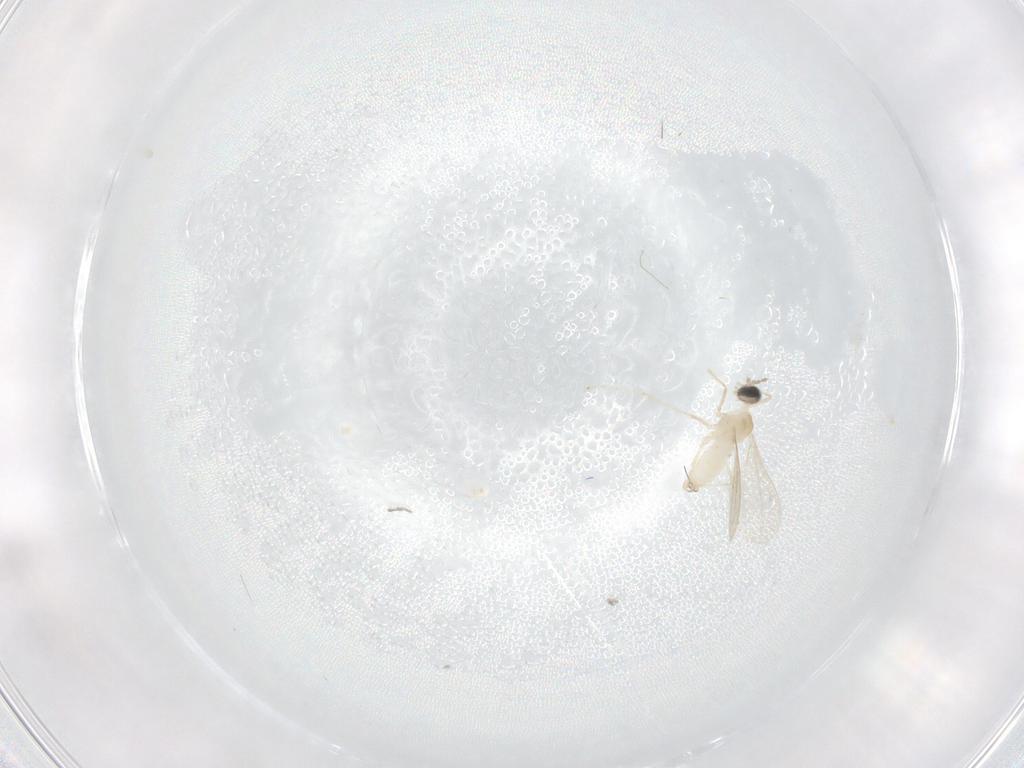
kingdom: Animalia
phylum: Arthropoda
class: Insecta
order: Diptera
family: Cecidomyiidae
